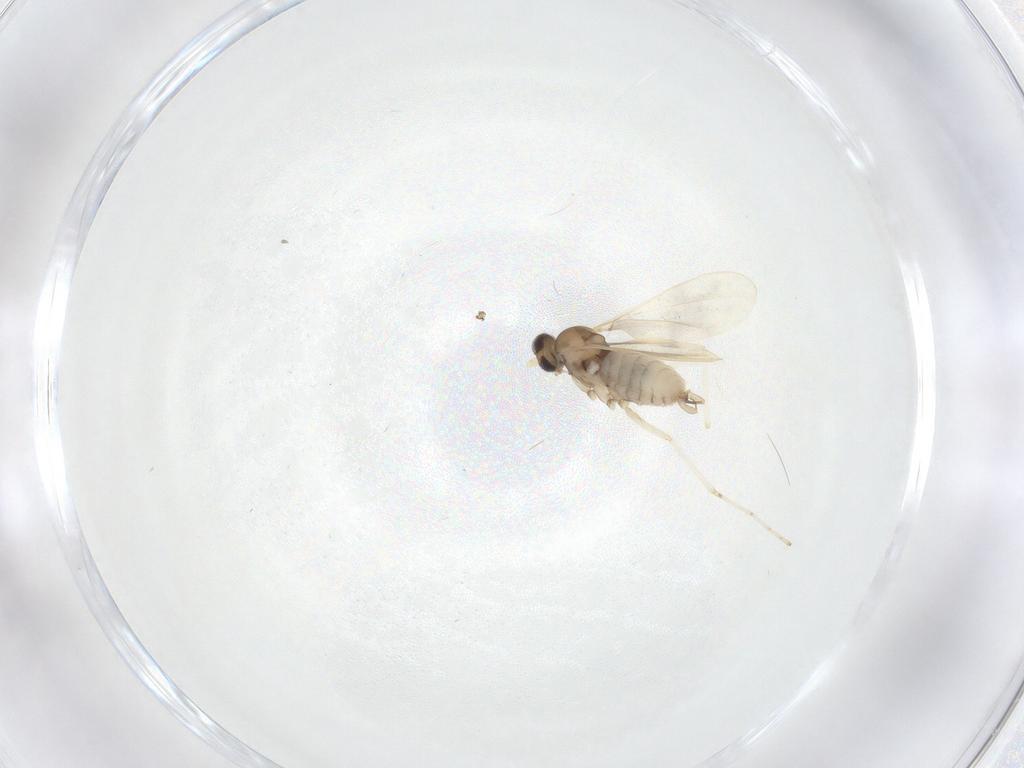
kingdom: Animalia
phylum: Arthropoda
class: Insecta
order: Diptera
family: Cecidomyiidae
